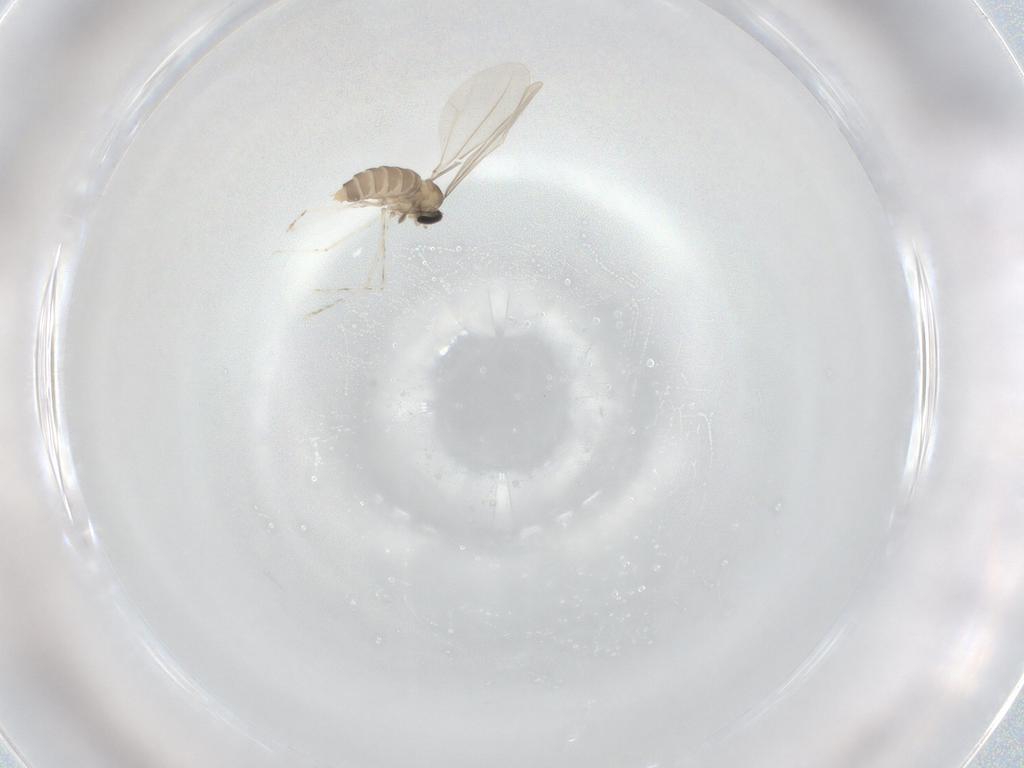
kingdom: Animalia
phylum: Arthropoda
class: Insecta
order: Diptera
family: Cecidomyiidae
